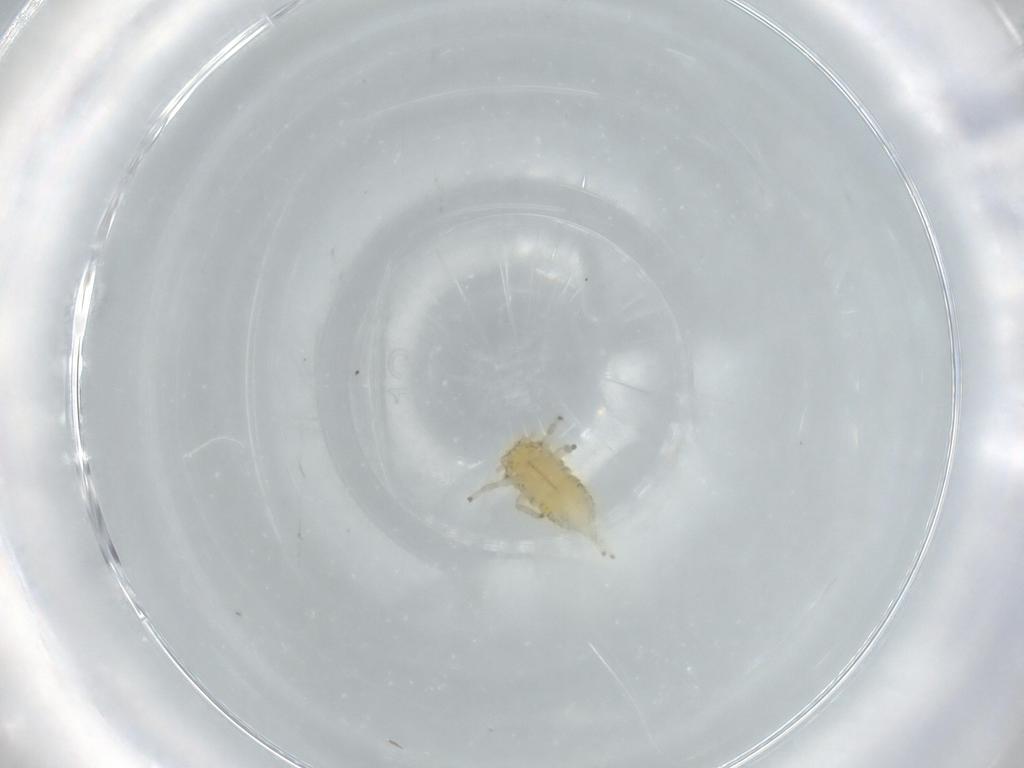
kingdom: Animalia
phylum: Arthropoda
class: Insecta
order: Hemiptera
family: Cicadellidae
